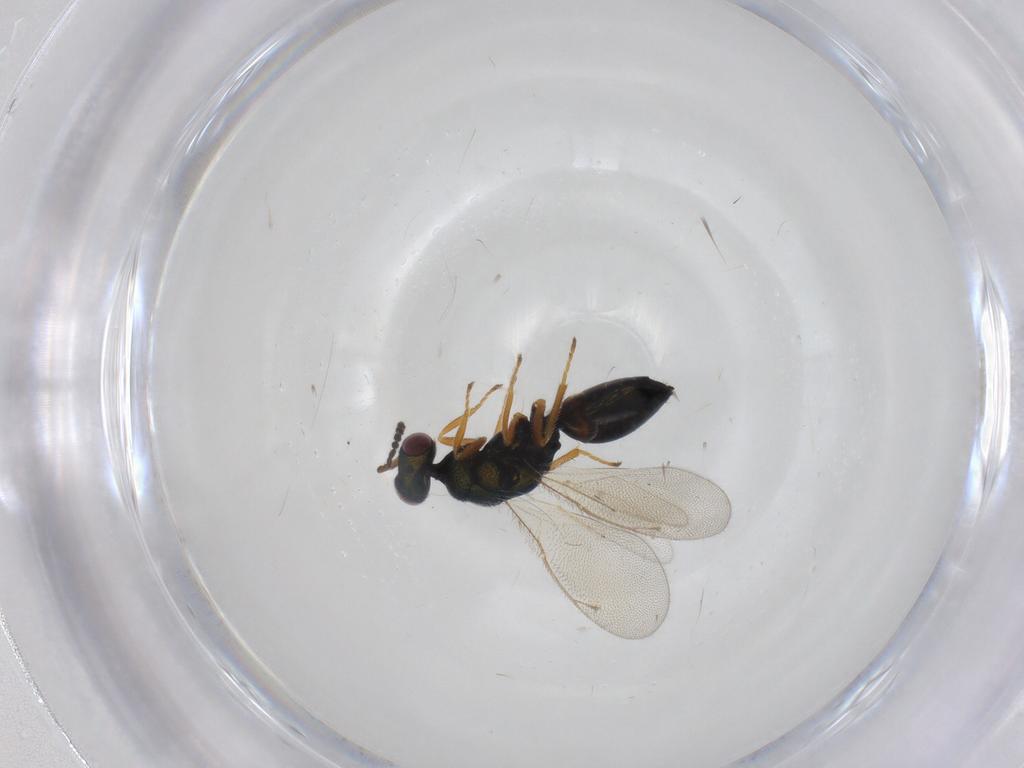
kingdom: Animalia
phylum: Arthropoda
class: Insecta
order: Hymenoptera
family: Eulophidae
